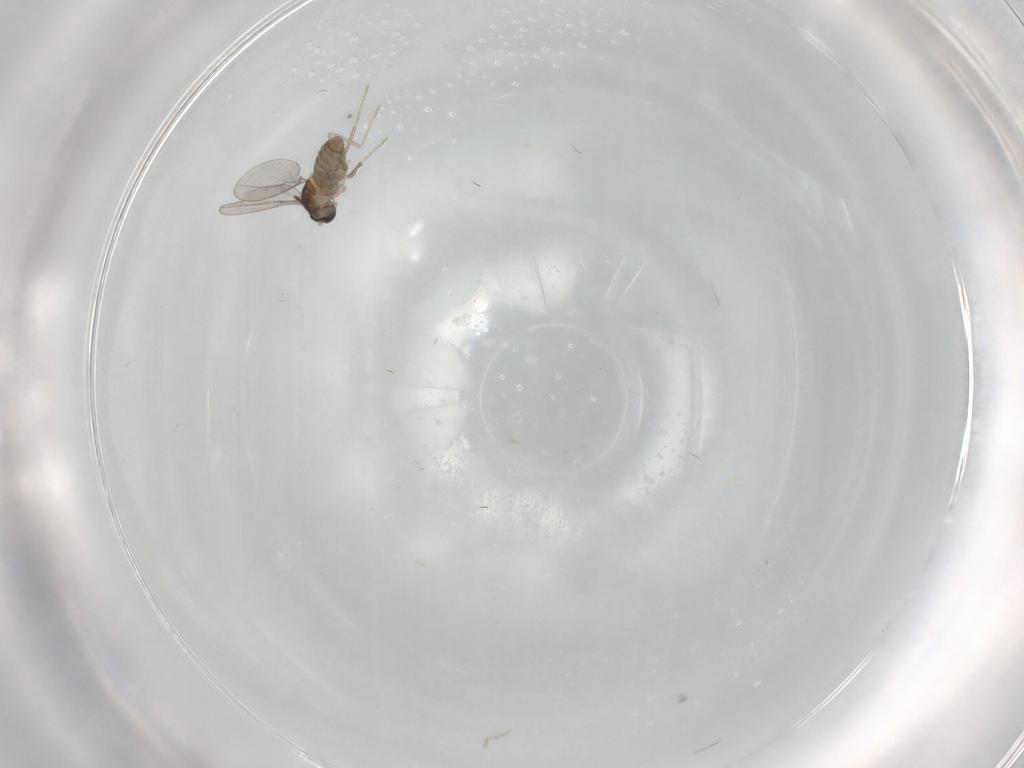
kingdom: Animalia
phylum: Arthropoda
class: Insecta
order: Diptera
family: Cecidomyiidae
